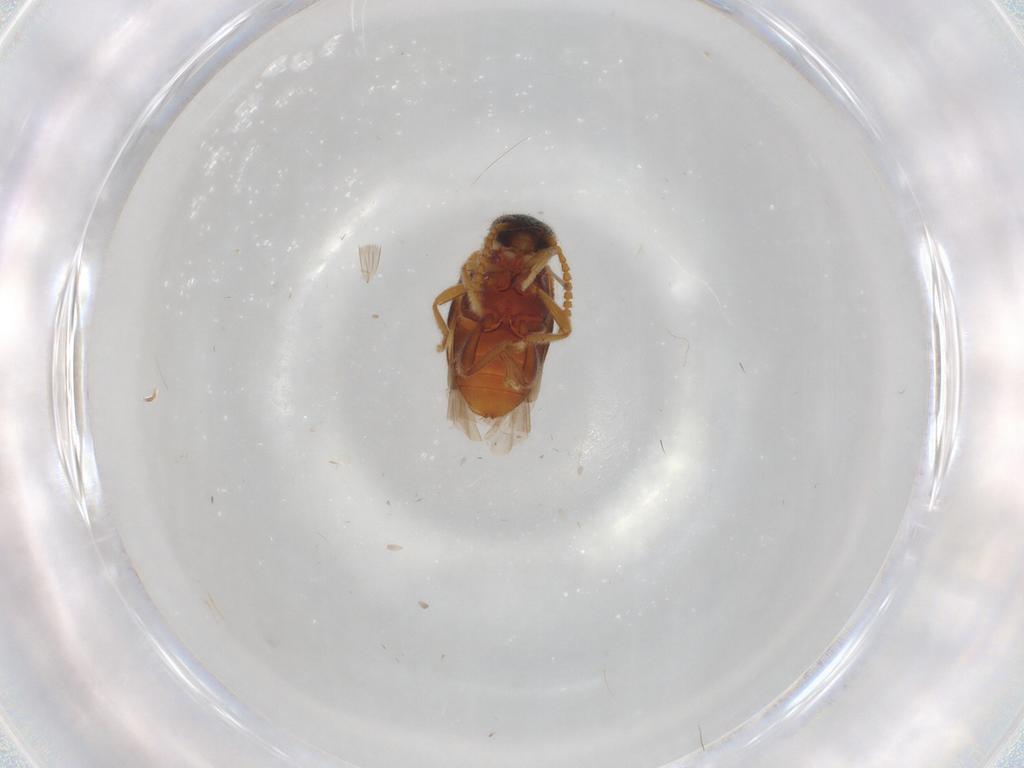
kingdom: Animalia
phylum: Arthropoda
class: Insecta
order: Coleoptera
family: Aderidae
